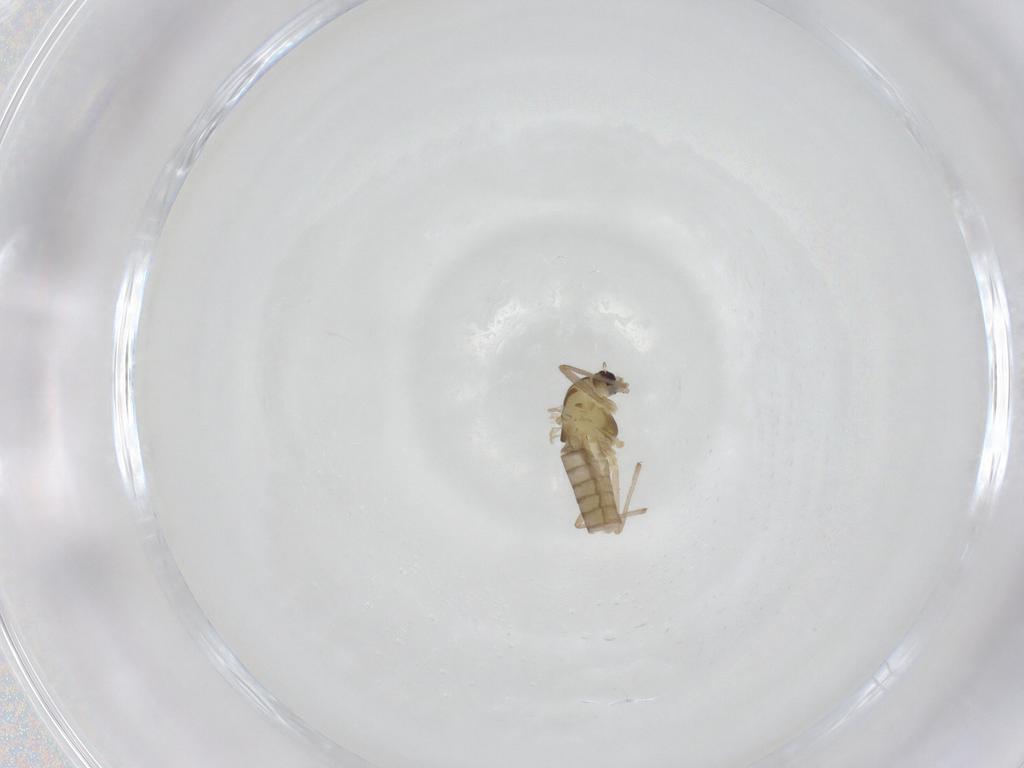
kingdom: Animalia
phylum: Arthropoda
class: Insecta
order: Diptera
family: Chironomidae
